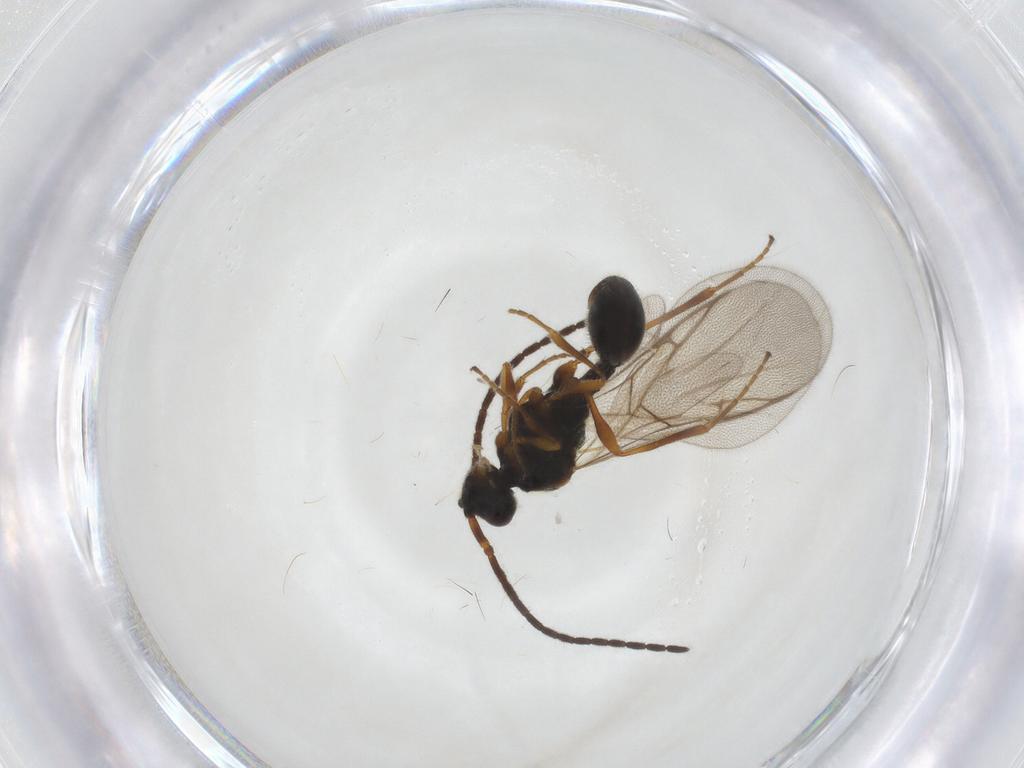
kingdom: Animalia
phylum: Arthropoda
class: Insecta
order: Hymenoptera
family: Diapriidae
